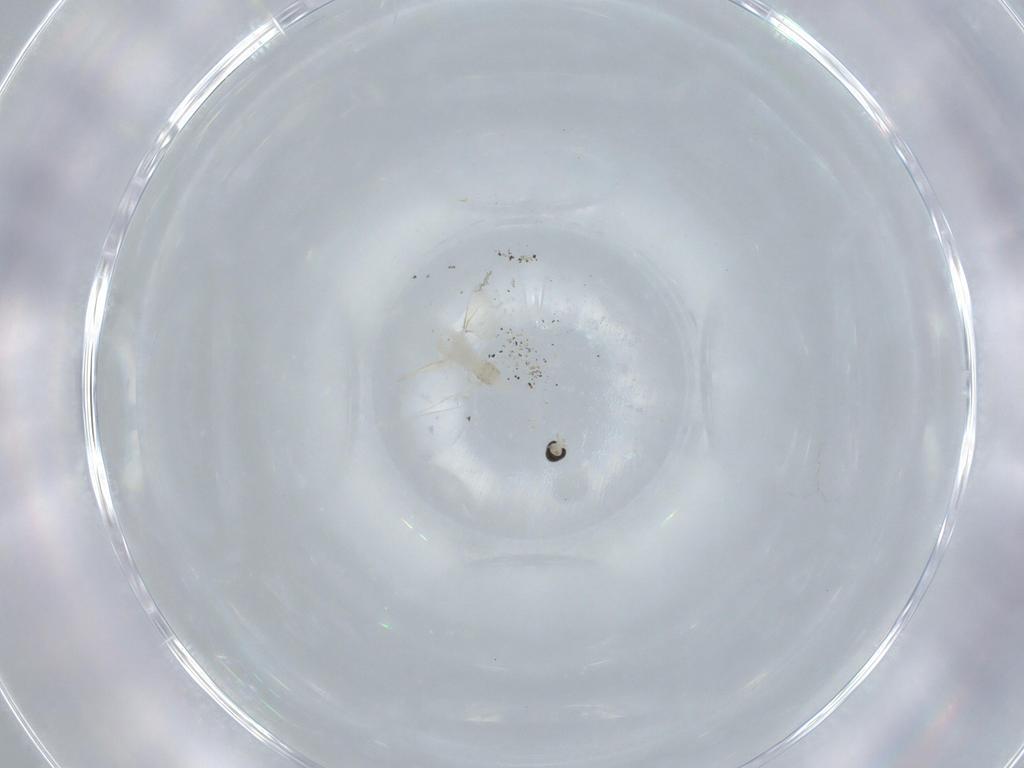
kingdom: Animalia
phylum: Arthropoda
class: Insecta
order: Diptera
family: Cecidomyiidae
